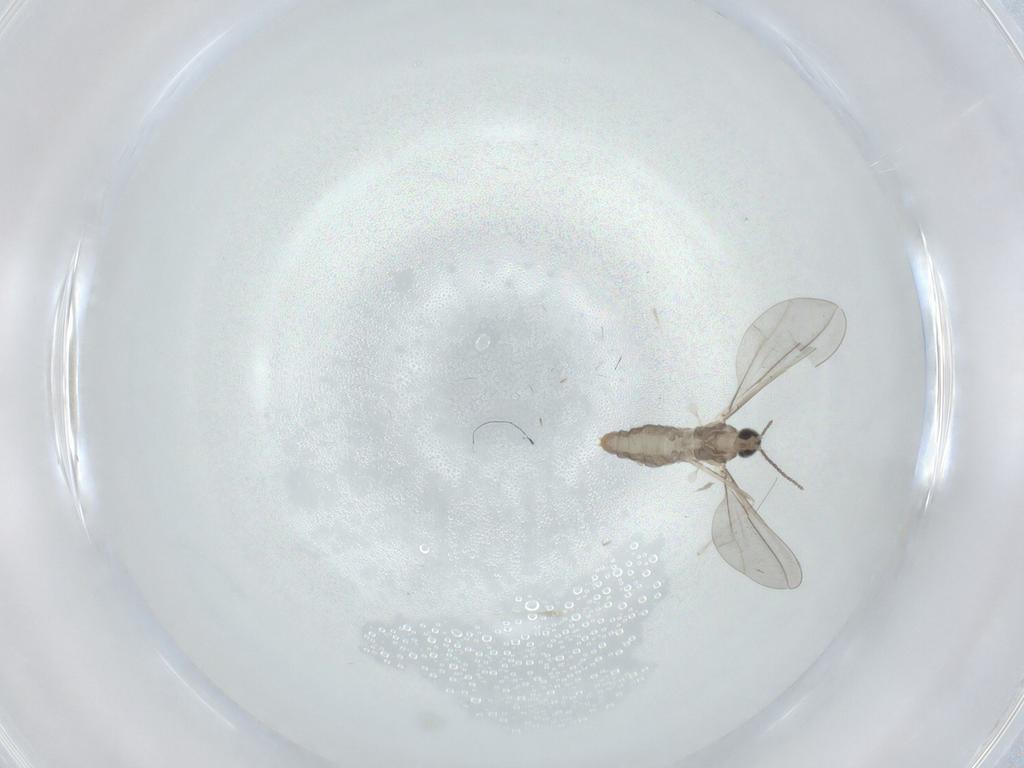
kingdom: Animalia
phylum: Arthropoda
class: Insecta
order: Diptera
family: Cecidomyiidae
